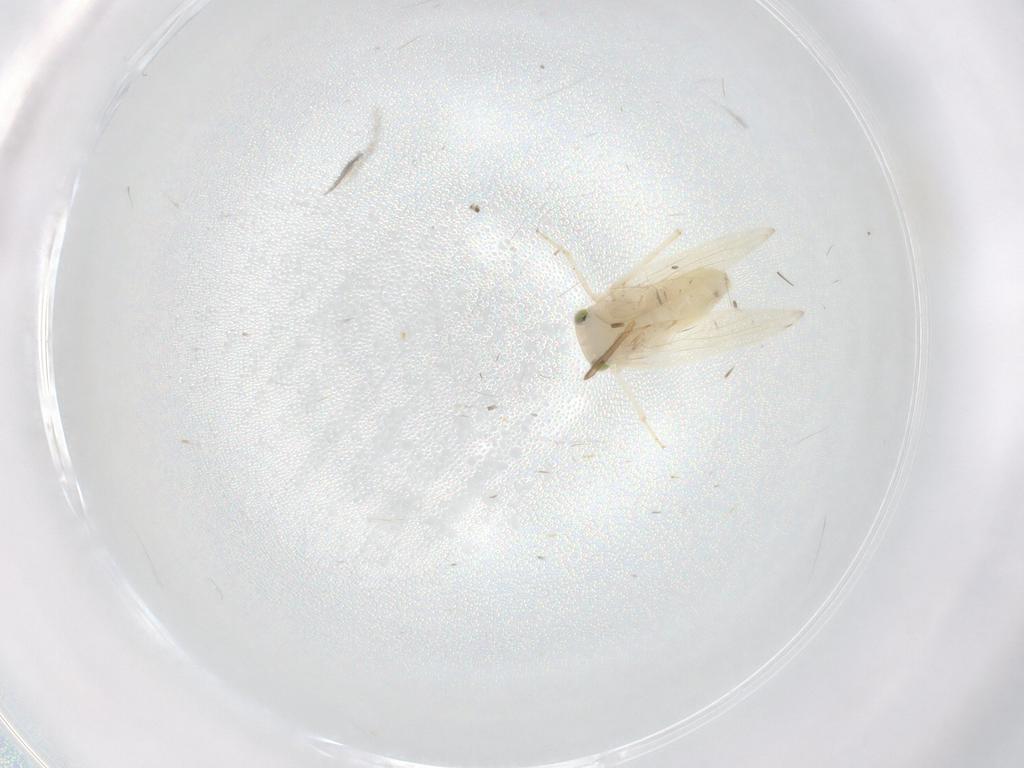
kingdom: Animalia
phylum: Arthropoda
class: Insecta
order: Psocodea
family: Lepidopsocidae
